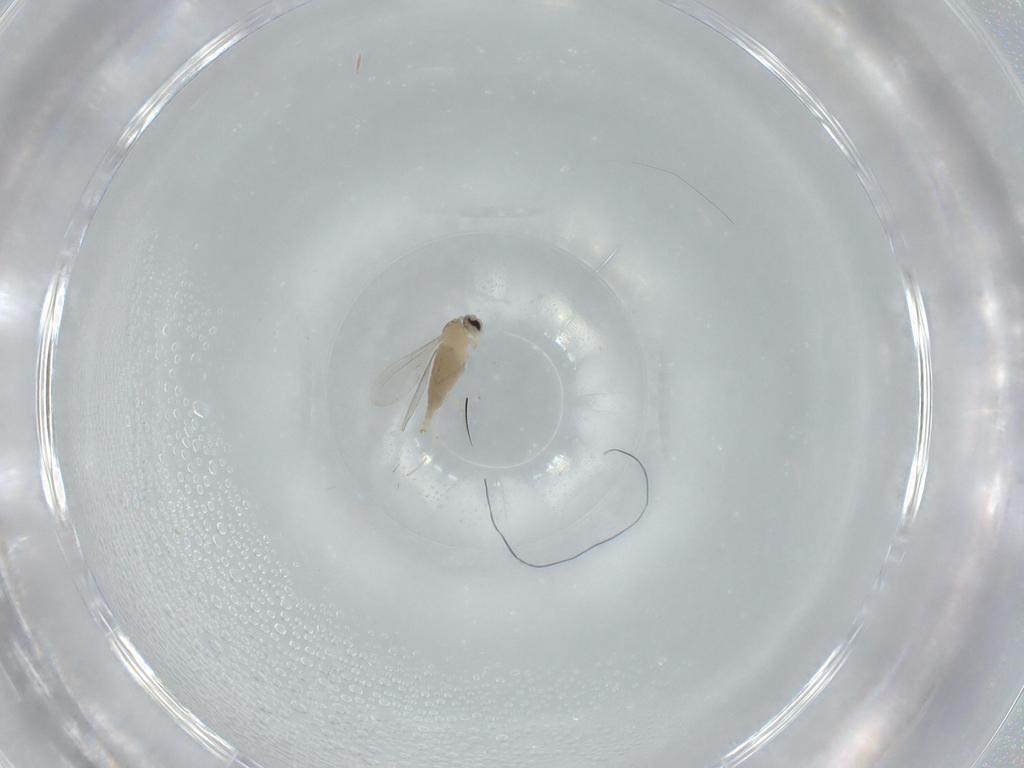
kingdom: Animalia
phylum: Arthropoda
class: Insecta
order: Diptera
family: Cecidomyiidae
